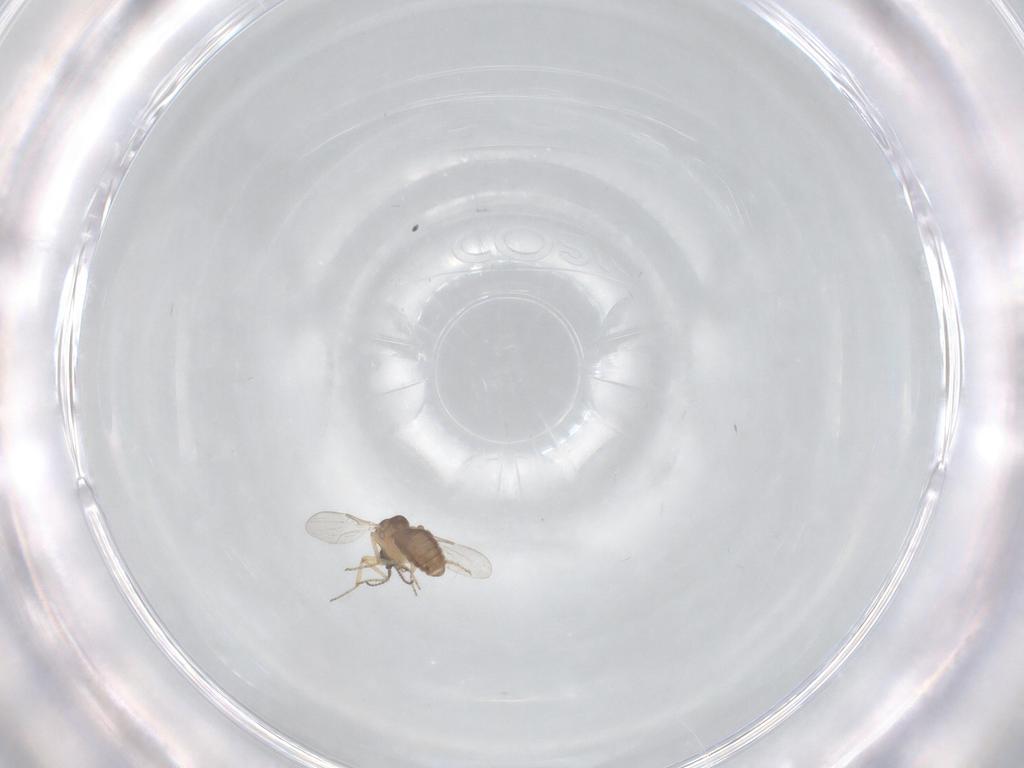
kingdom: Animalia
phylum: Arthropoda
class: Insecta
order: Diptera
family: Ceratopogonidae
